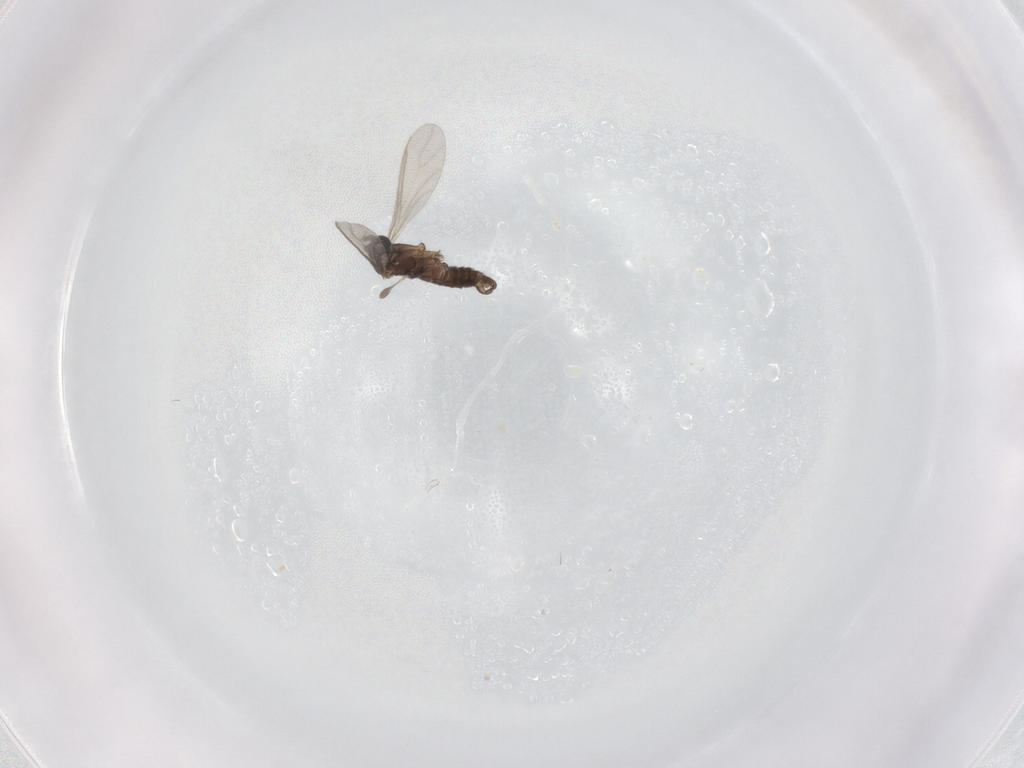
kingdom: Animalia
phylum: Arthropoda
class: Insecta
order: Diptera
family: Sciaridae
